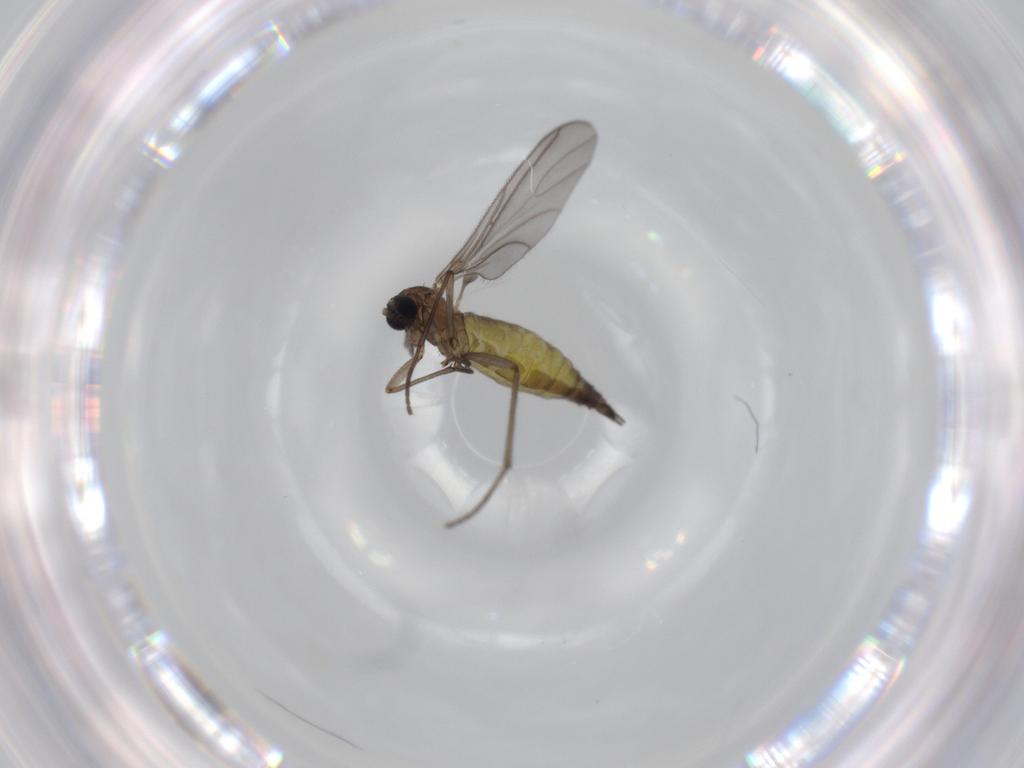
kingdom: Animalia
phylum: Arthropoda
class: Insecta
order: Diptera
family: Sciaridae
